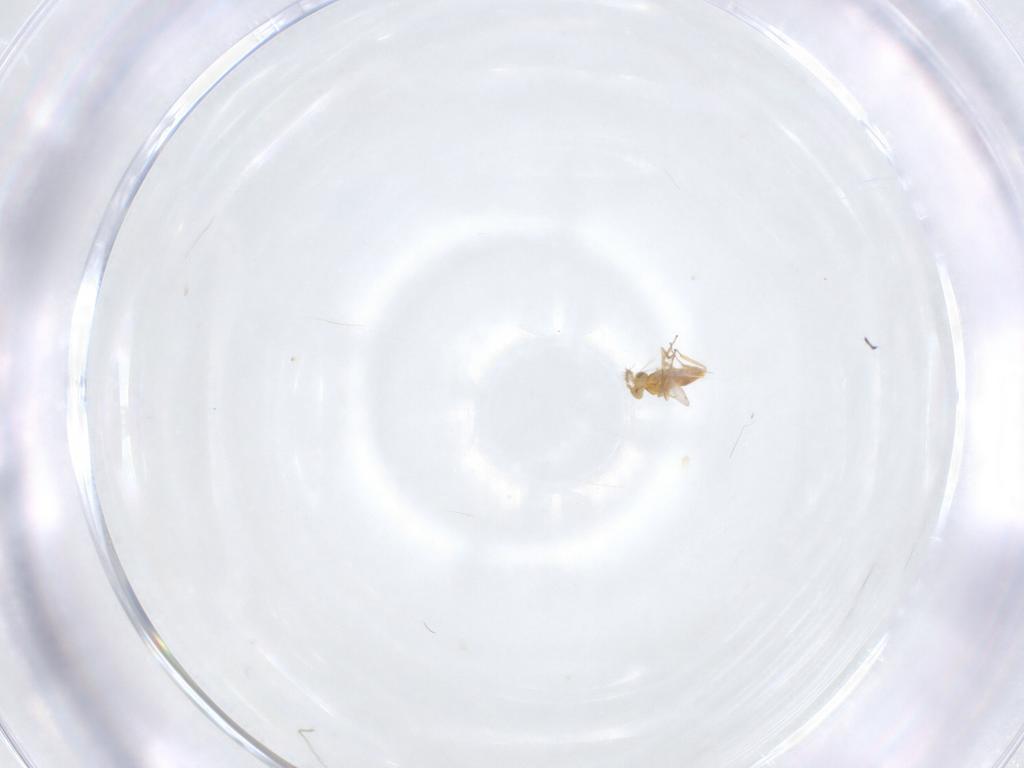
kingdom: Animalia
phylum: Arthropoda
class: Insecta
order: Hymenoptera
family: Aphelinidae
